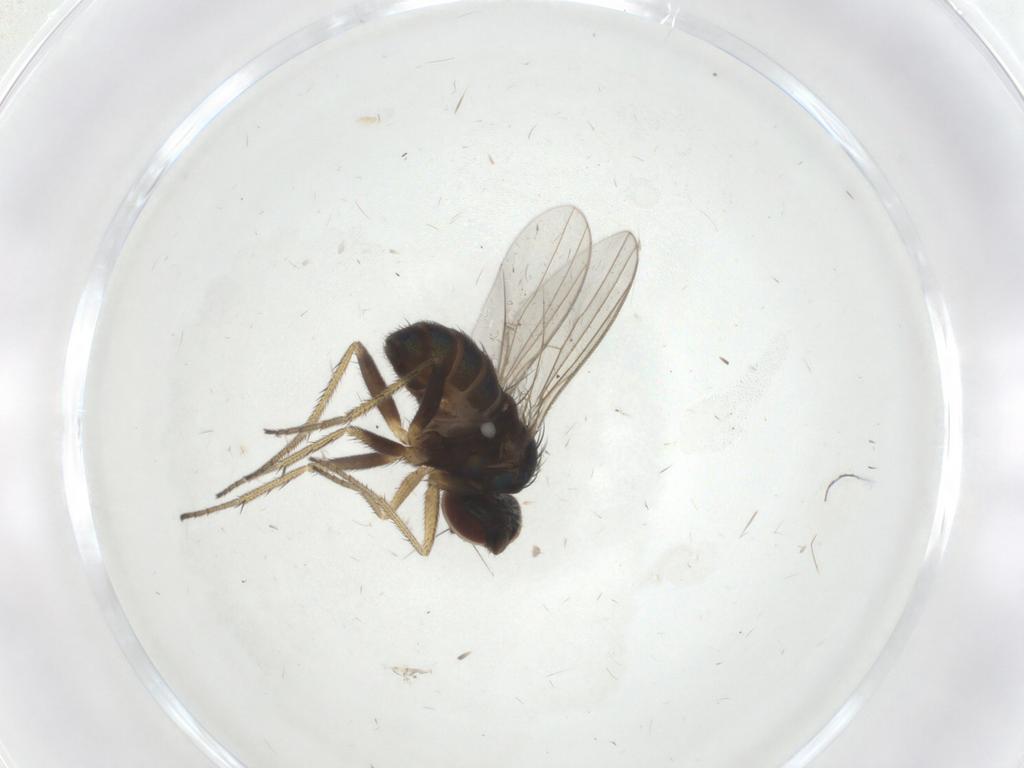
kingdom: Animalia
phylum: Arthropoda
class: Insecta
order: Diptera
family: Dolichopodidae
